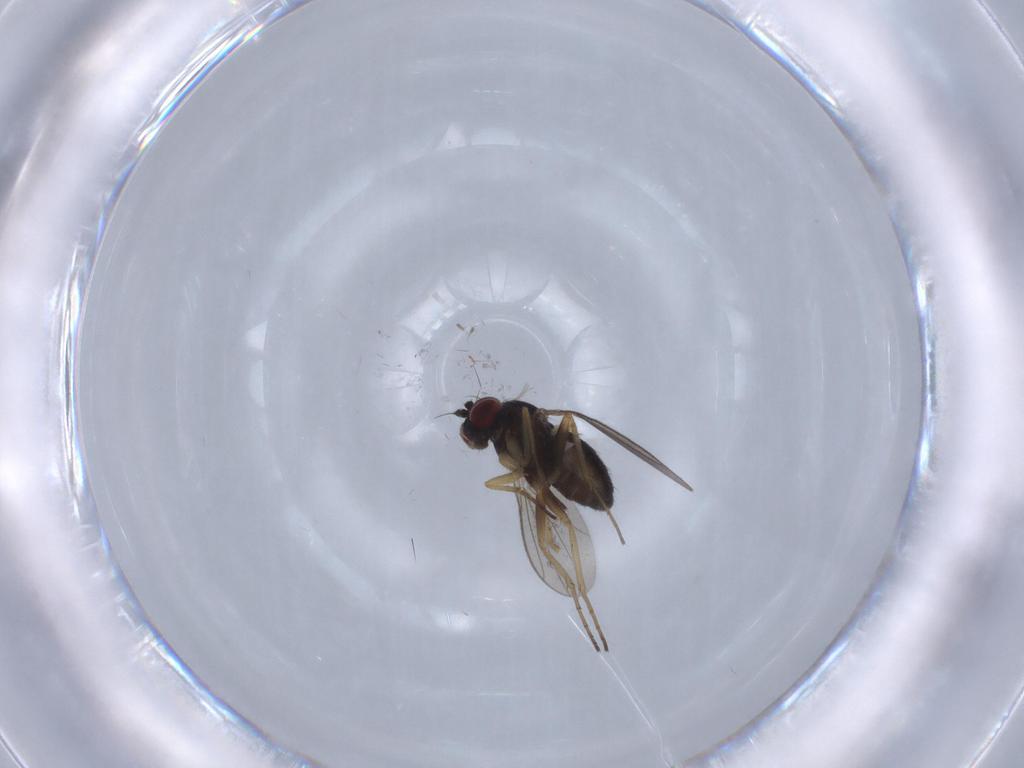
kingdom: Animalia
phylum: Arthropoda
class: Insecta
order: Diptera
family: Dolichopodidae
